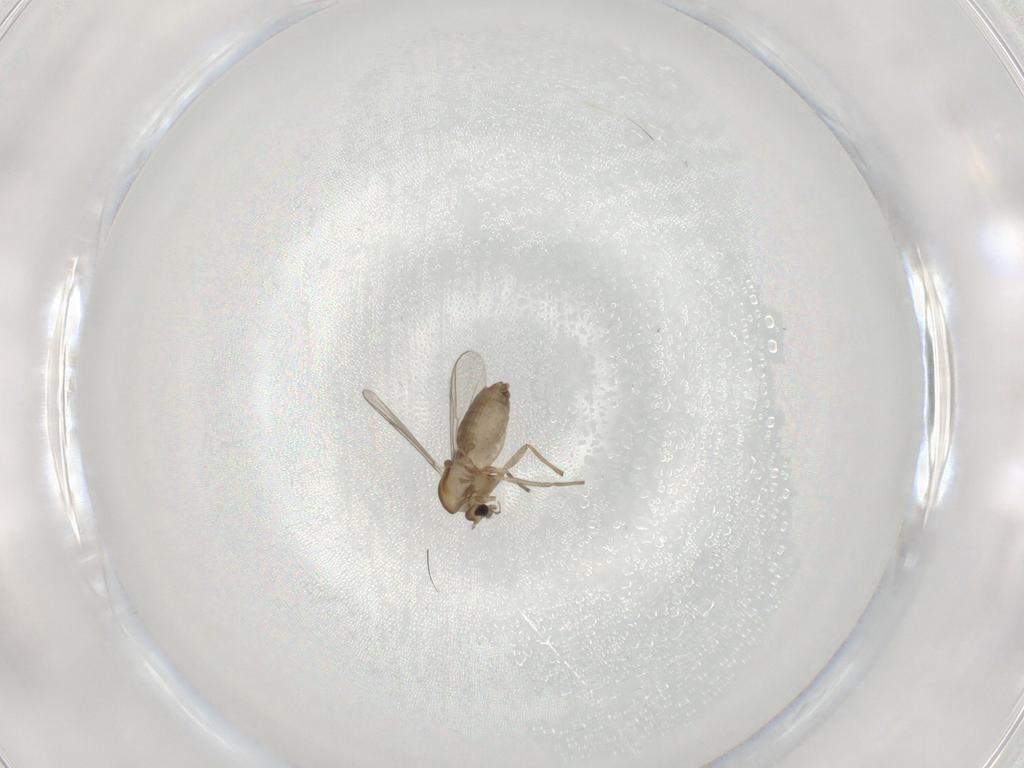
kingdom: Animalia
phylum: Arthropoda
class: Insecta
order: Diptera
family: Chironomidae
